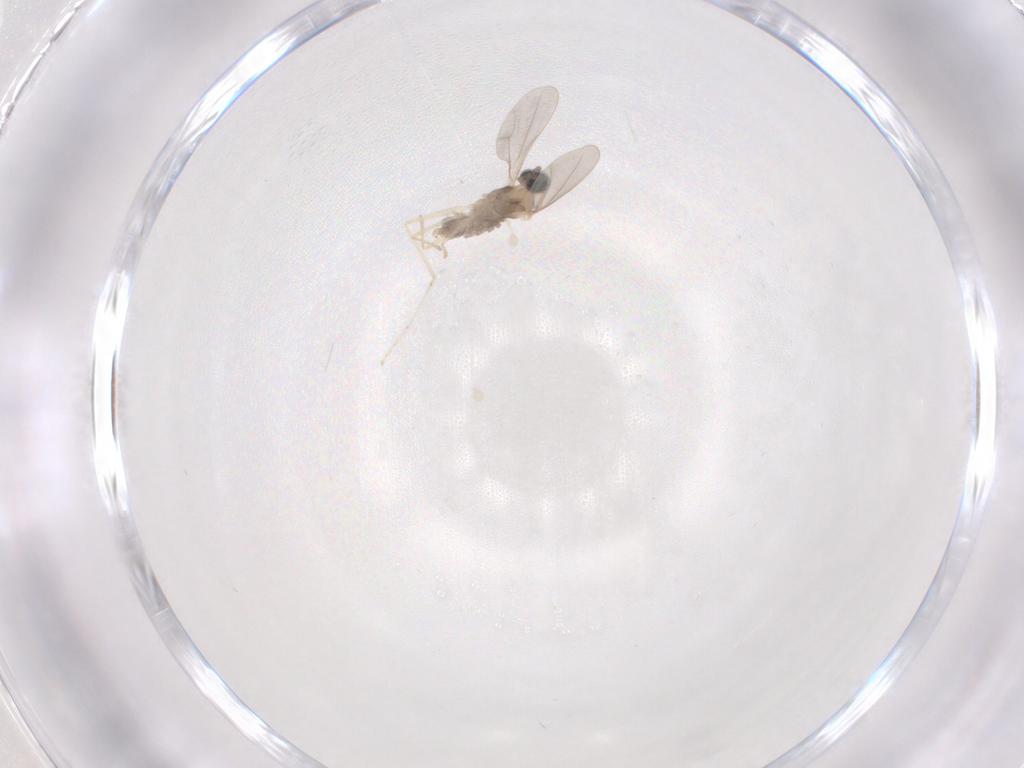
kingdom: Animalia
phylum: Arthropoda
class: Insecta
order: Diptera
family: Cecidomyiidae
